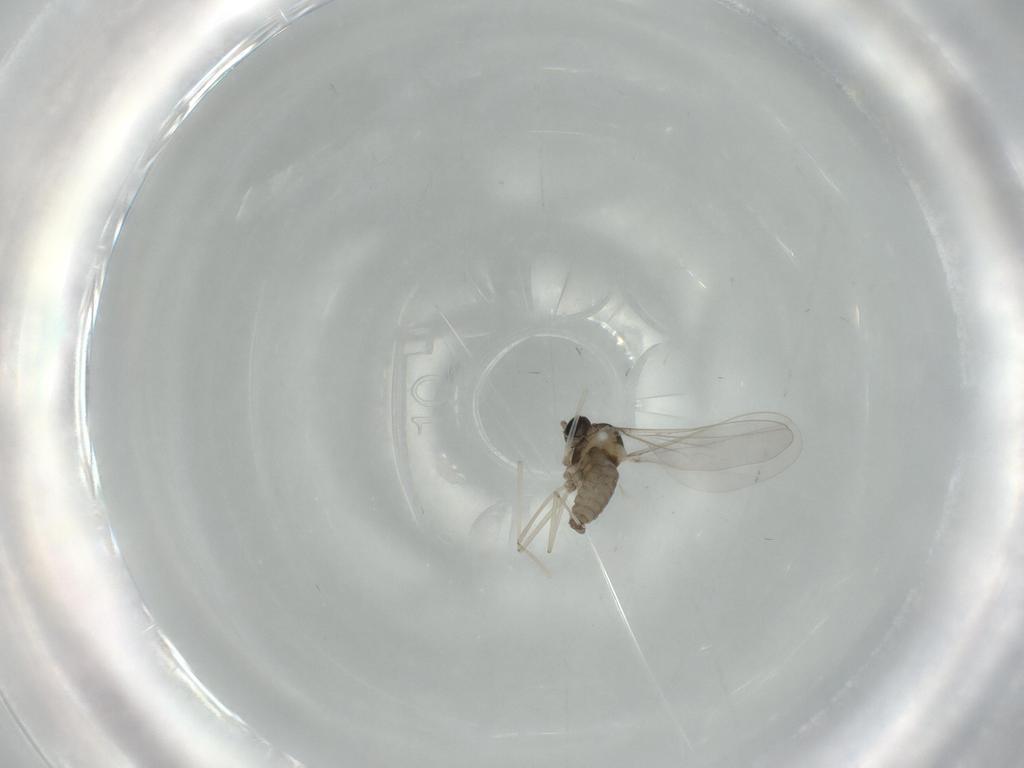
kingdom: Animalia
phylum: Arthropoda
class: Insecta
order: Diptera
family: Cecidomyiidae
